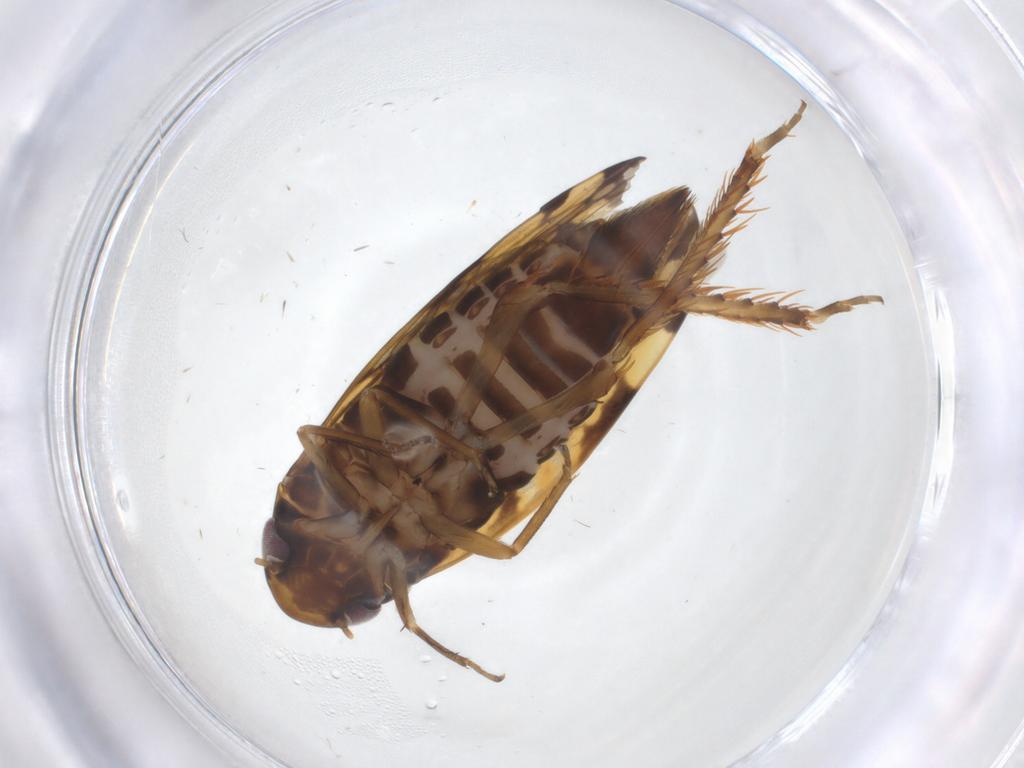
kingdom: Animalia
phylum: Arthropoda
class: Insecta
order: Hemiptera
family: Cicadellidae
